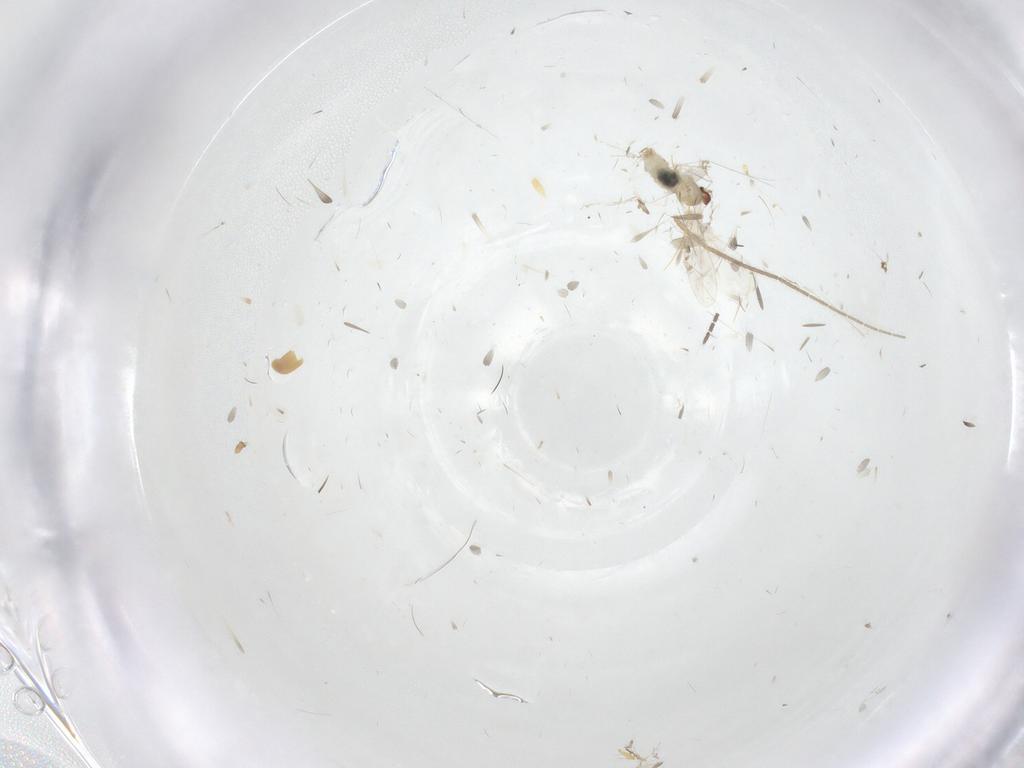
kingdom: Animalia
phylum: Arthropoda
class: Insecta
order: Diptera
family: Cecidomyiidae
